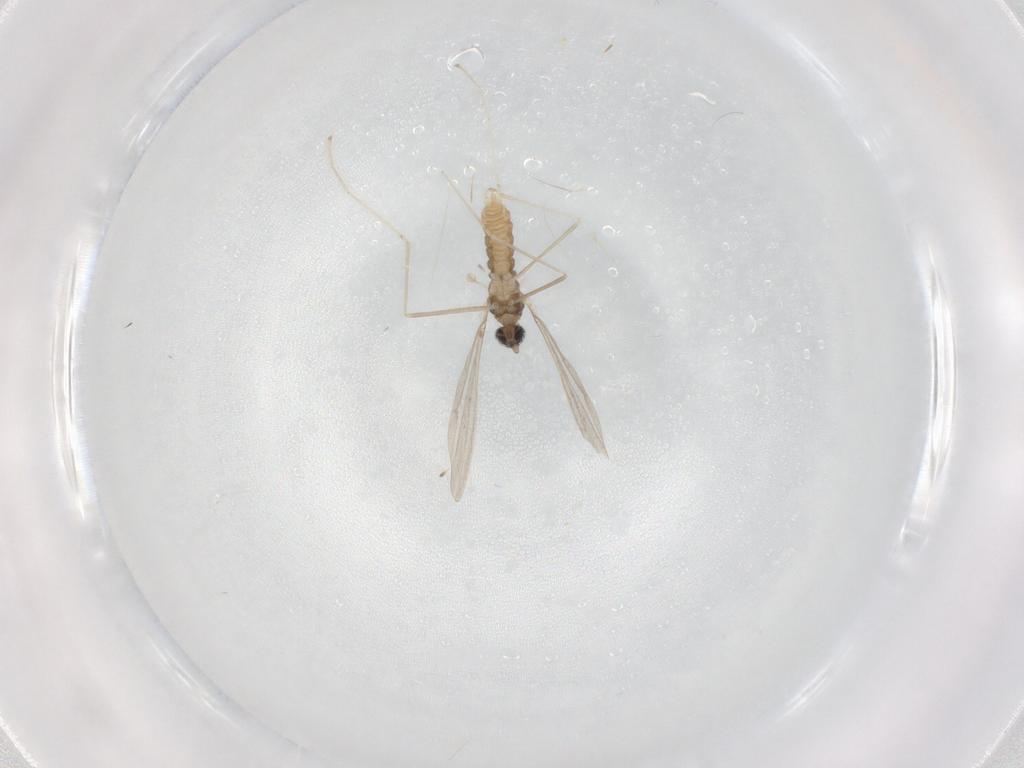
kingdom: Animalia
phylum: Arthropoda
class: Insecta
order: Diptera
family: Cecidomyiidae
